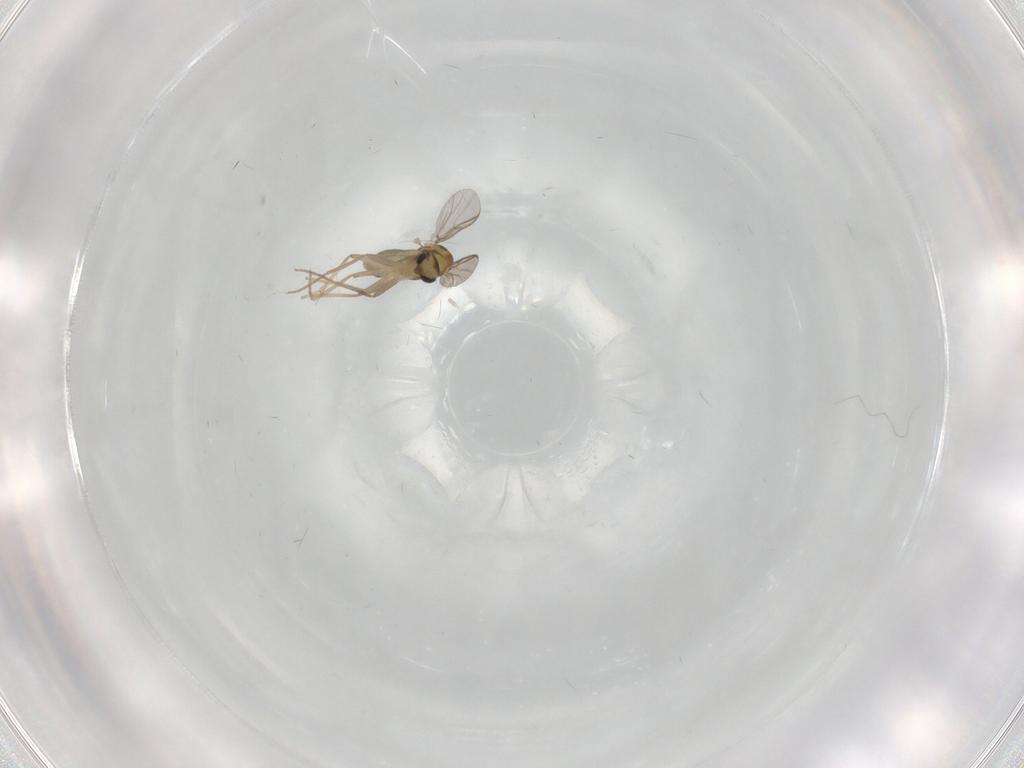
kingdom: Animalia
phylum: Arthropoda
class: Insecta
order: Diptera
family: Chironomidae
